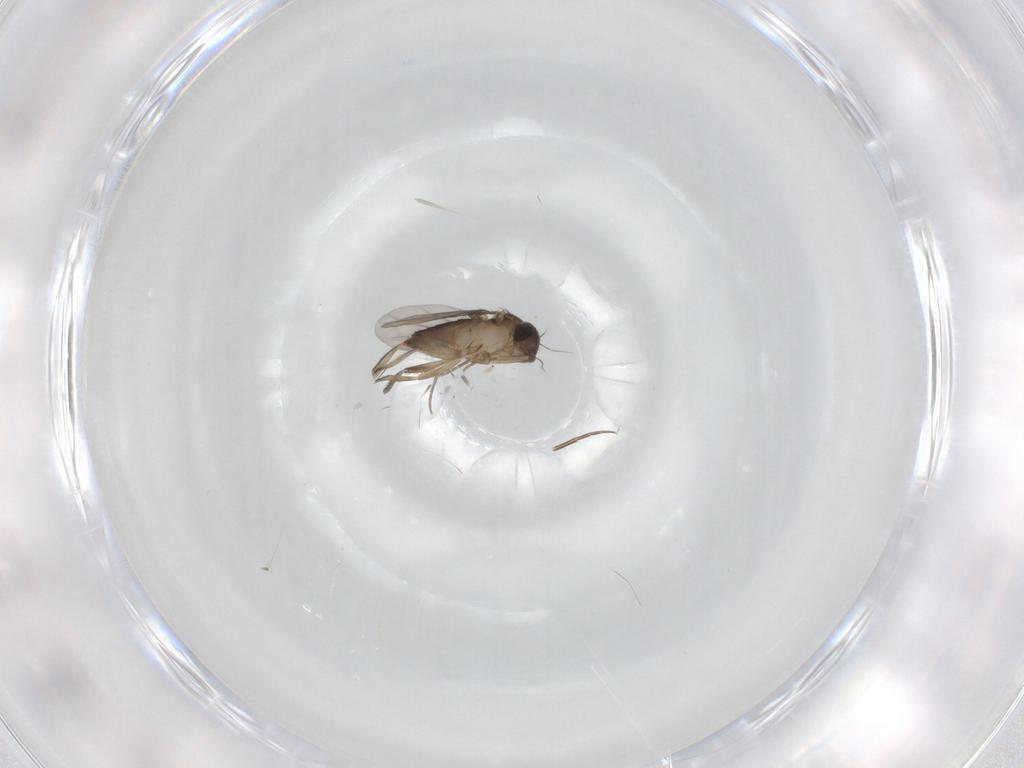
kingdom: Animalia
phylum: Arthropoda
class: Insecta
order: Diptera
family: Phoridae
